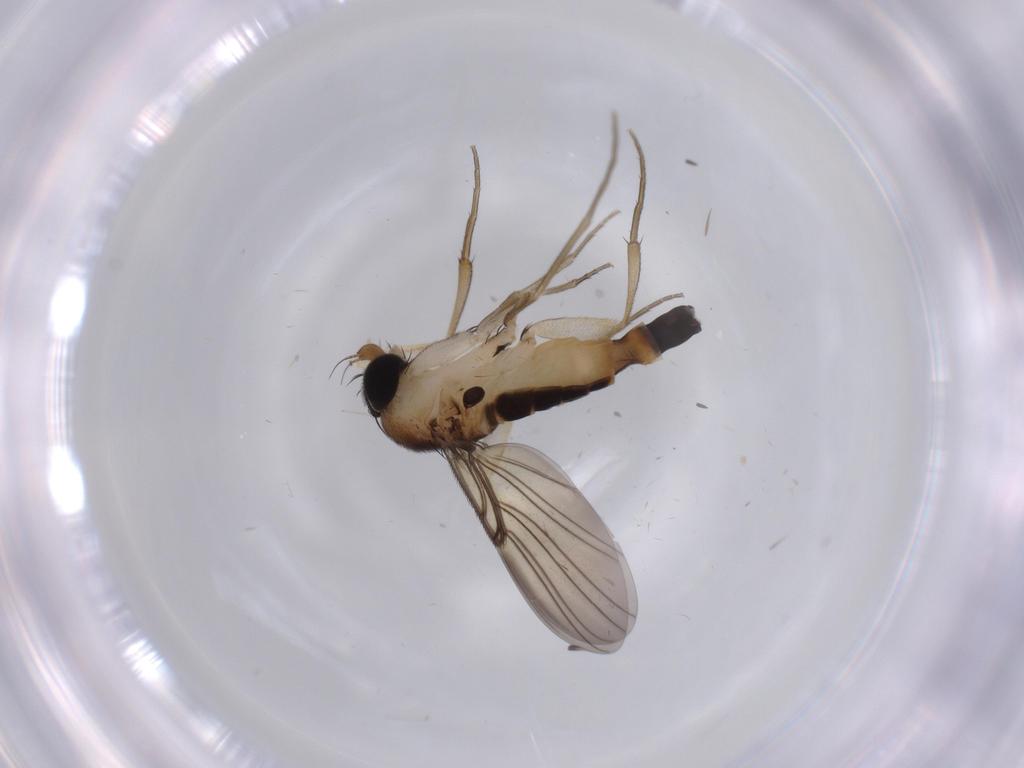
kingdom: Animalia
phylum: Arthropoda
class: Insecta
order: Diptera
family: Phoridae
